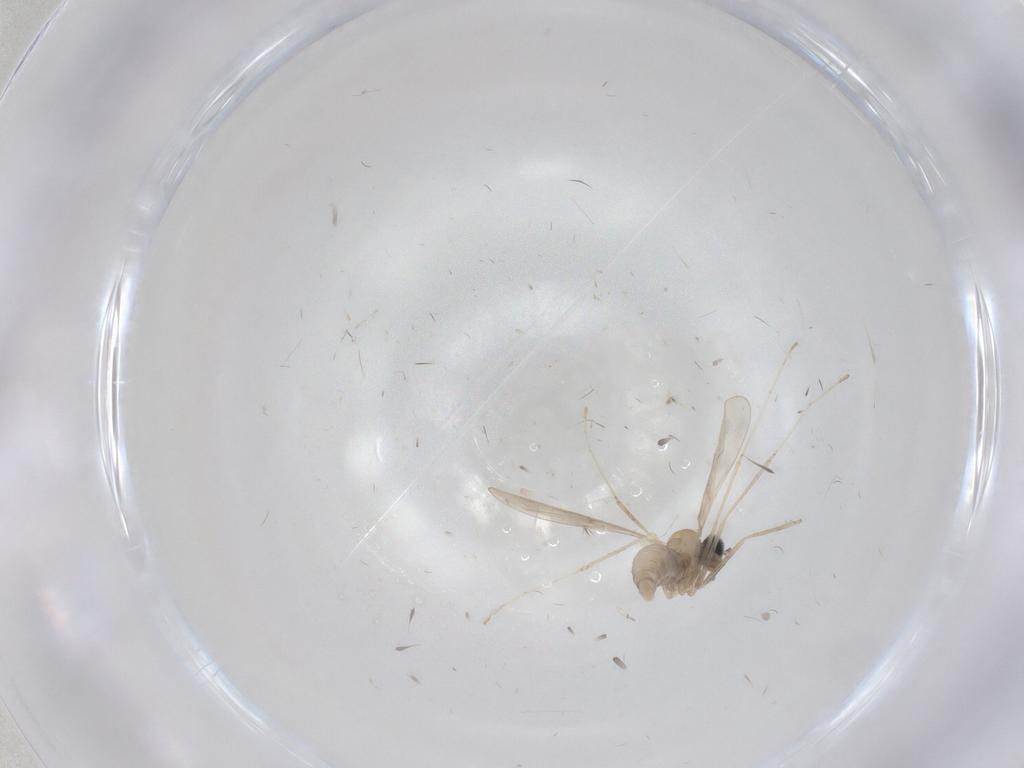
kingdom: Animalia
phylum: Arthropoda
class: Insecta
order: Diptera
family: Cecidomyiidae
